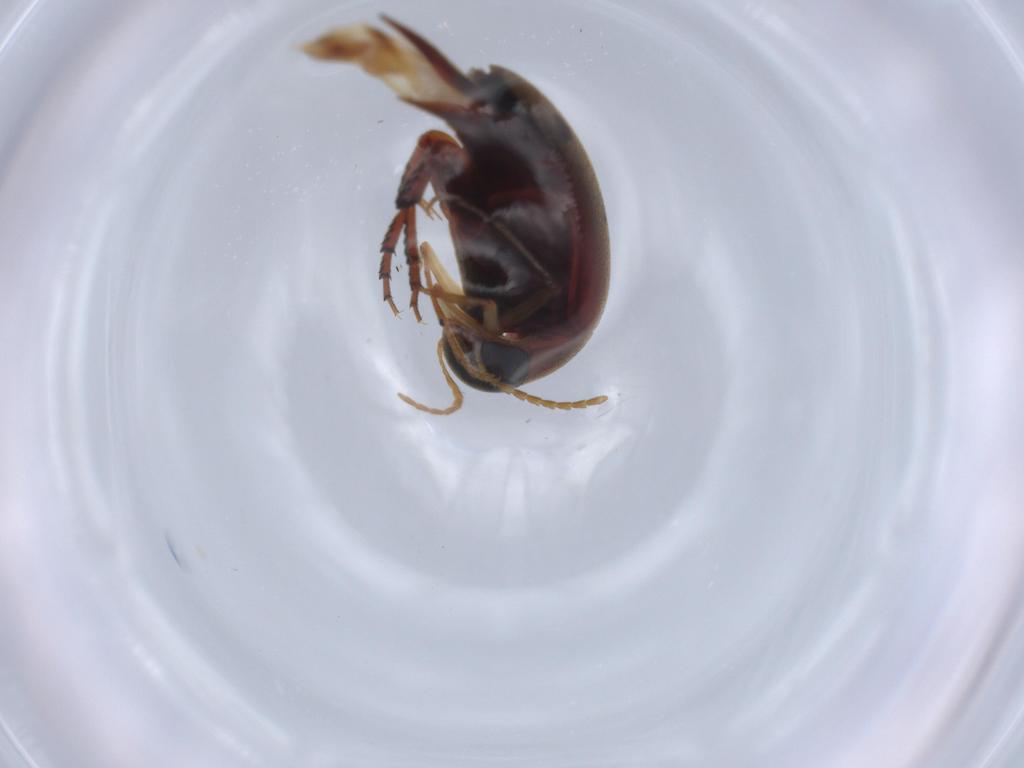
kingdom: Animalia
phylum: Arthropoda
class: Insecta
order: Coleoptera
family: Mordellidae
